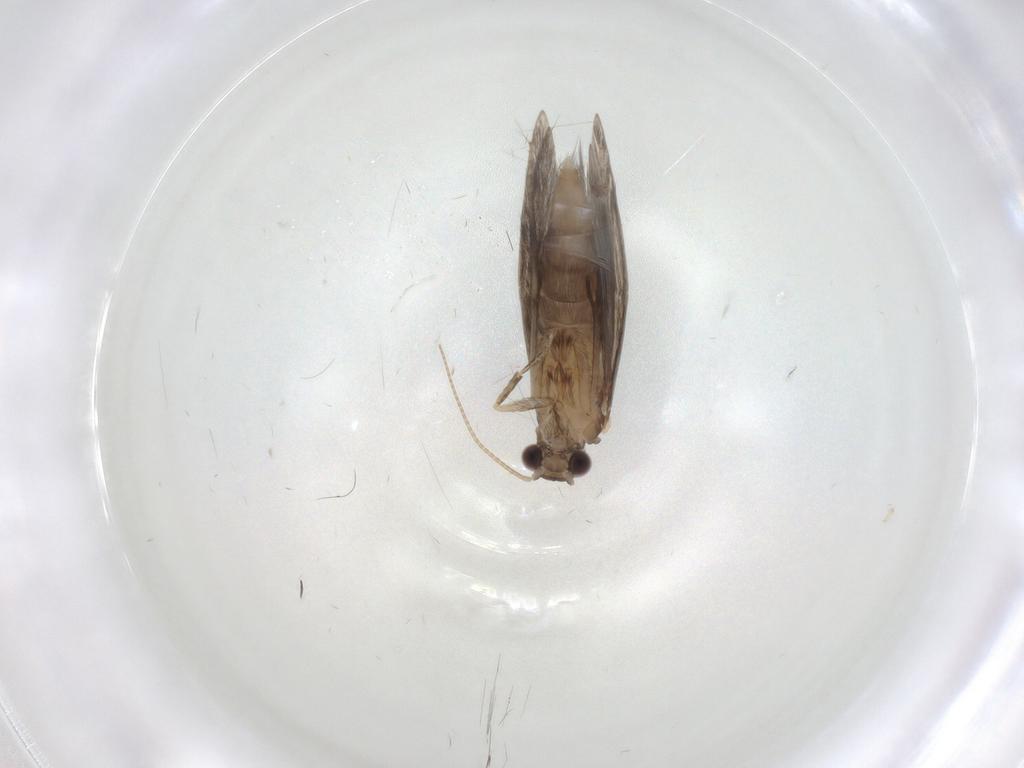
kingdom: Animalia
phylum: Arthropoda
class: Insecta
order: Trichoptera
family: Hydroptilidae
